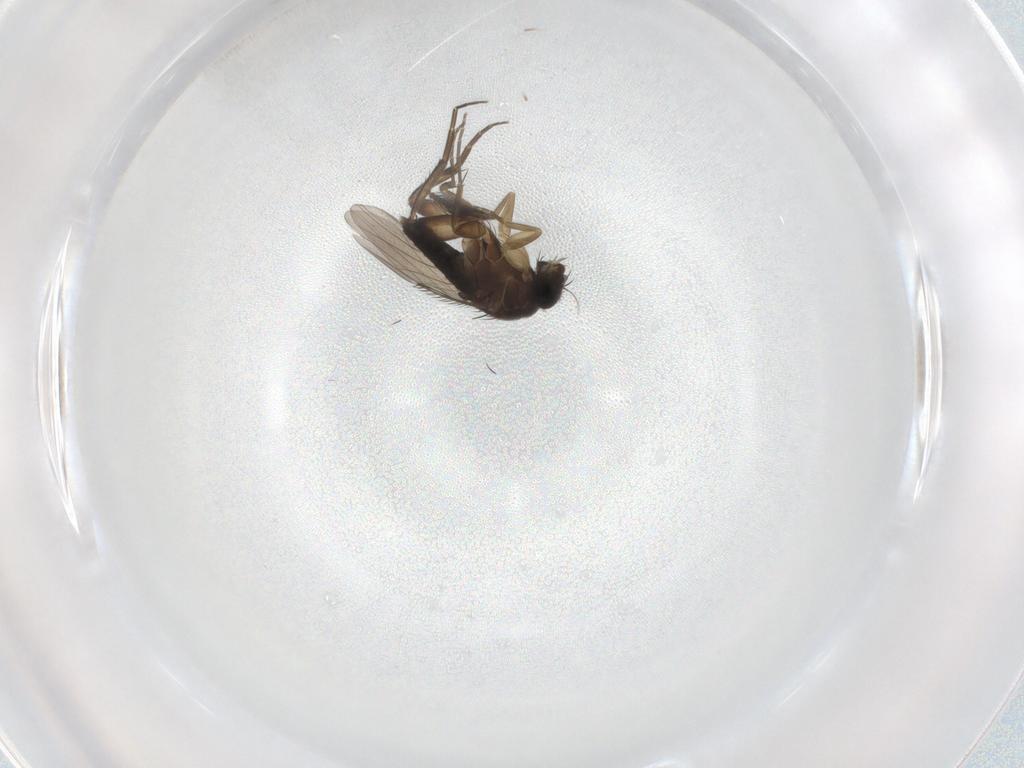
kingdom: Animalia
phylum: Arthropoda
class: Insecta
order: Diptera
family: Phoridae
